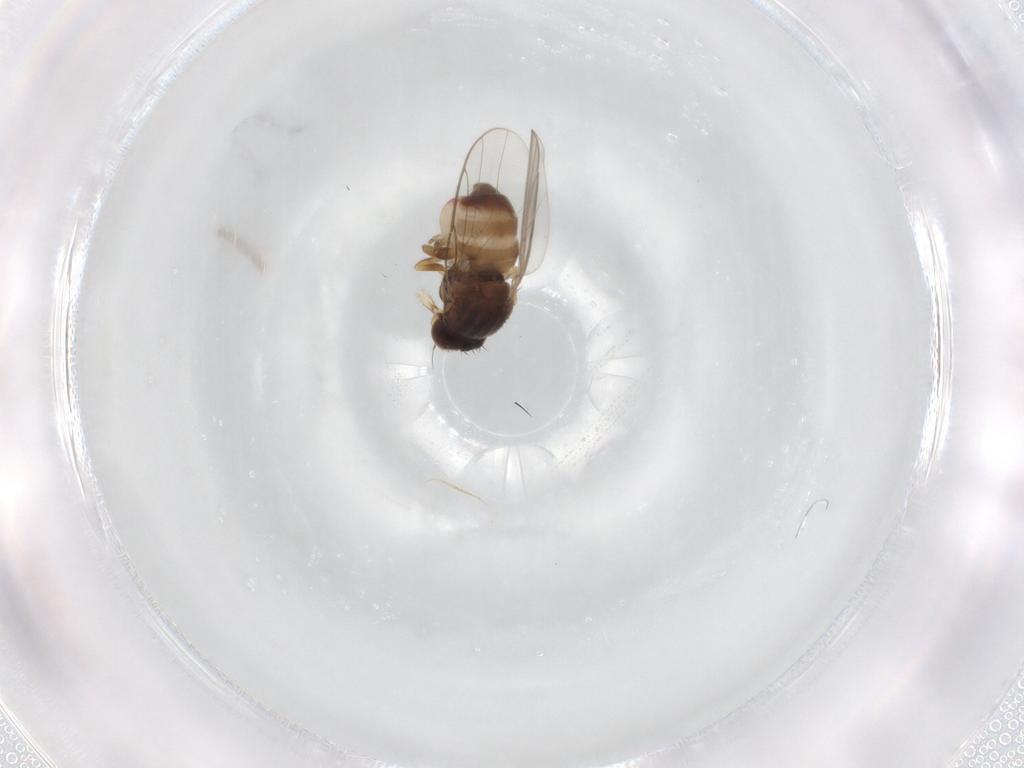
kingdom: Animalia
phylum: Arthropoda
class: Insecta
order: Diptera
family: Chloropidae
